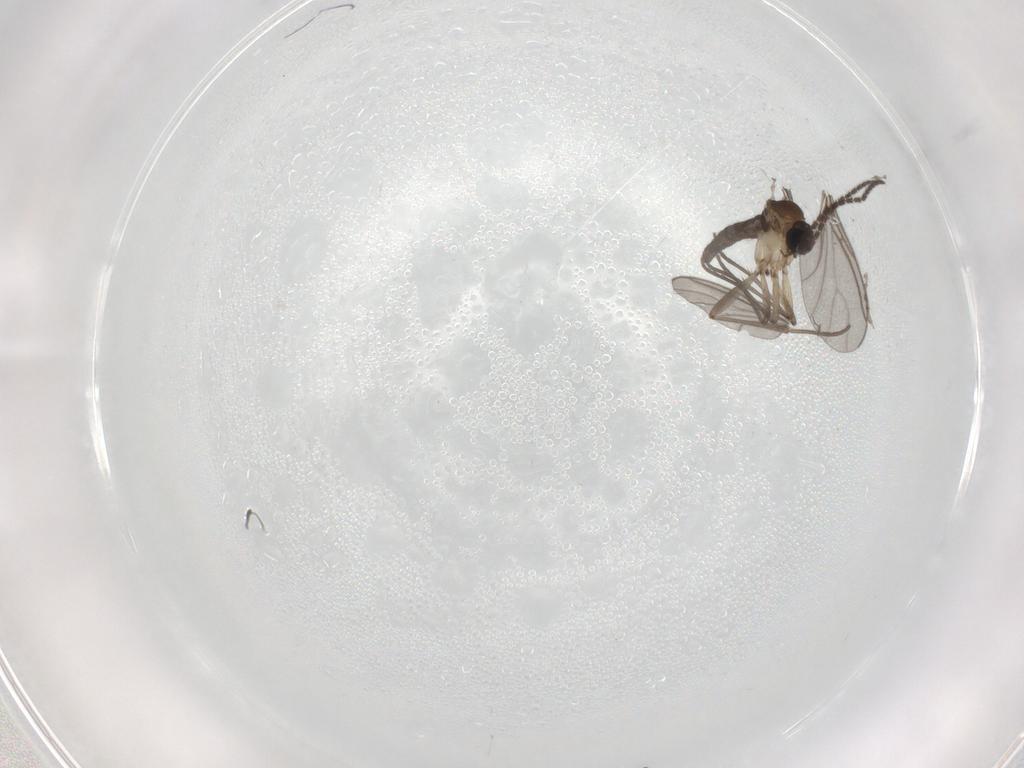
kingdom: Animalia
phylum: Arthropoda
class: Insecta
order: Diptera
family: Sciaridae
